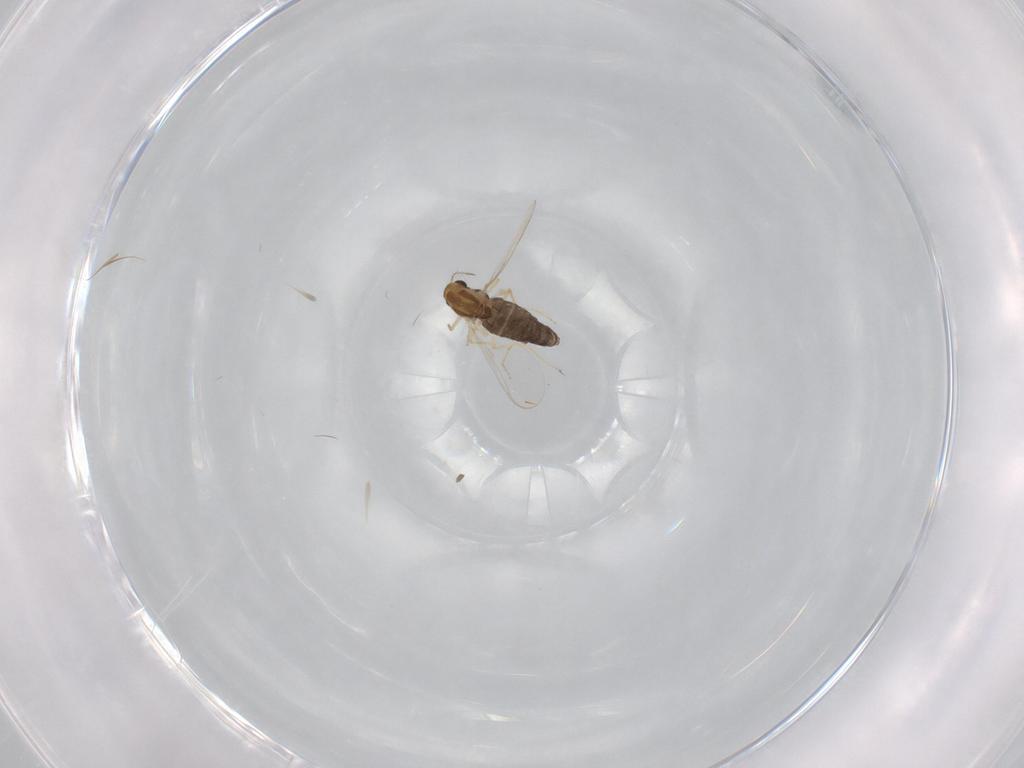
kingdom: Animalia
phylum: Arthropoda
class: Insecta
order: Diptera
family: Chironomidae
